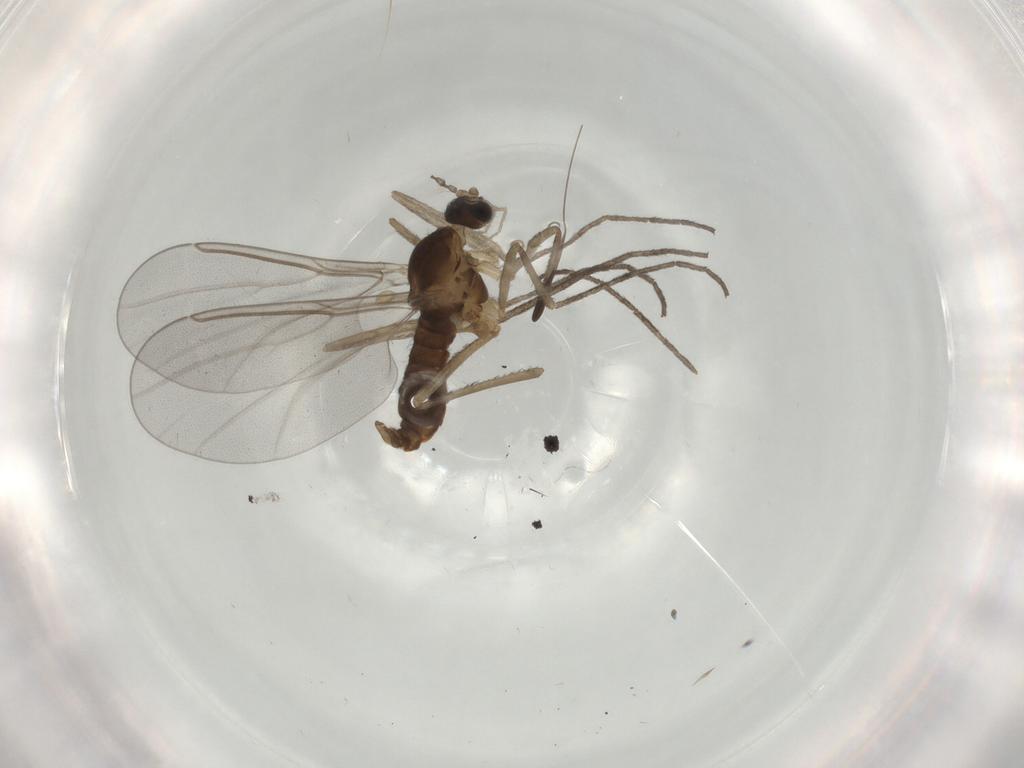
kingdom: Animalia
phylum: Arthropoda
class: Insecta
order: Diptera
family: Cecidomyiidae
